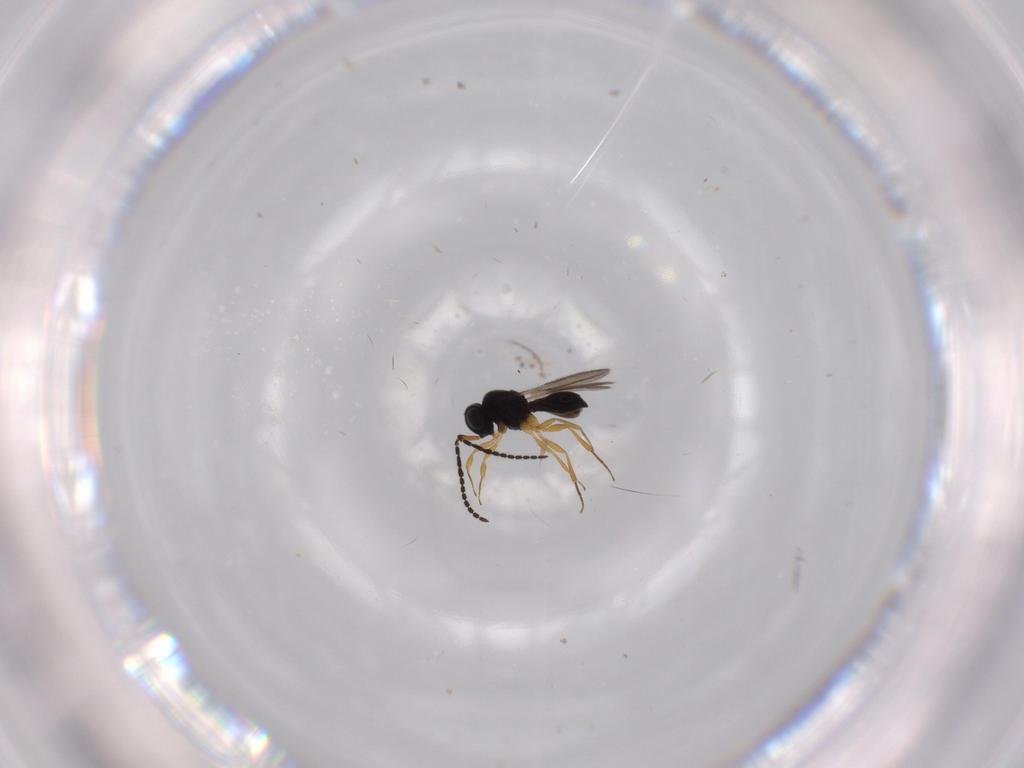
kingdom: Animalia
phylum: Arthropoda
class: Insecta
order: Hymenoptera
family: Scelionidae
